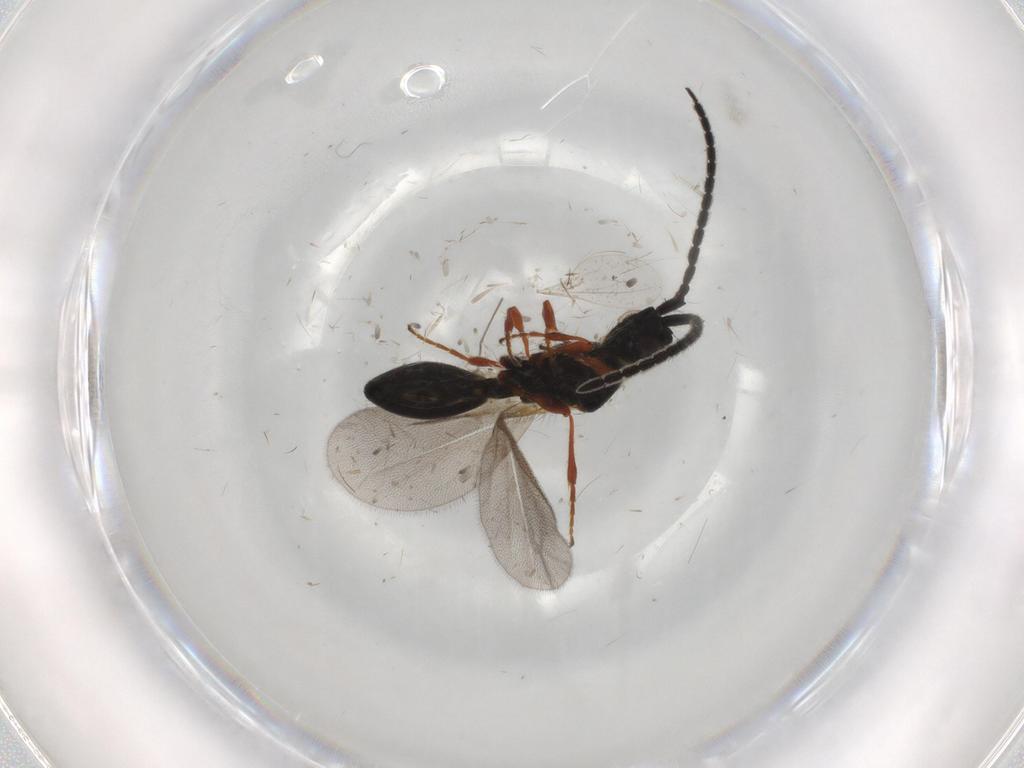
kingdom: Animalia
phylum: Arthropoda
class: Insecta
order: Hymenoptera
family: Diapriidae
